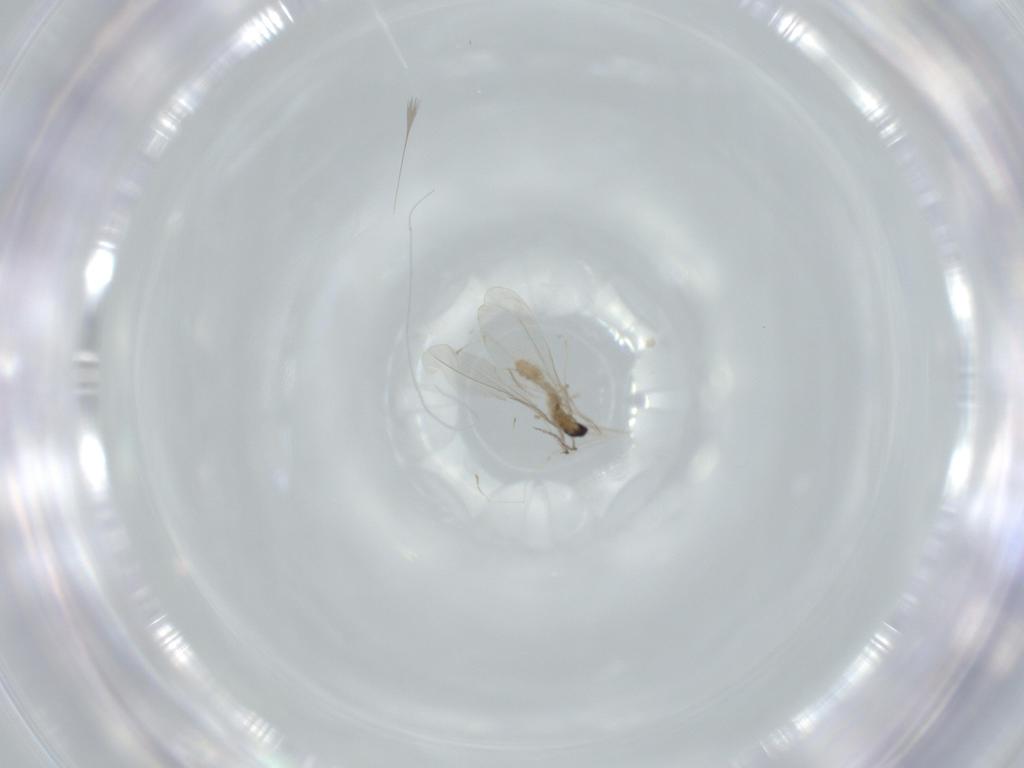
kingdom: Animalia
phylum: Arthropoda
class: Insecta
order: Diptera
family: Cecidomyiidae
